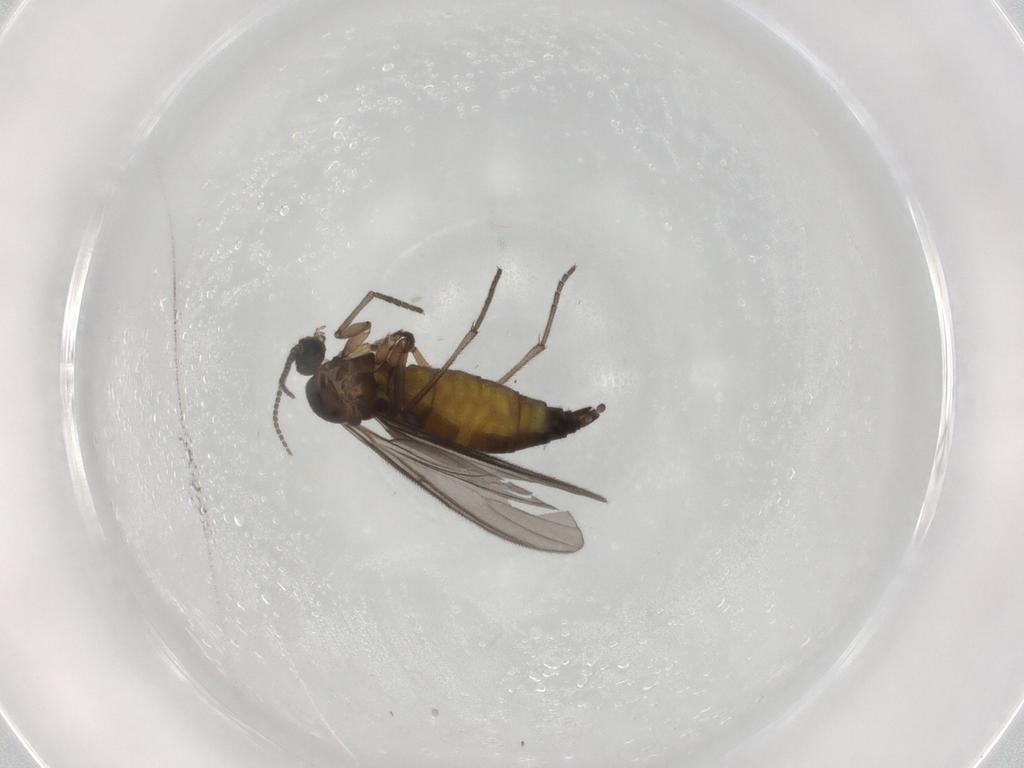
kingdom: Animalia
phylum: Arthropoda
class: Insecta
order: Diptera
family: Sciaridae
